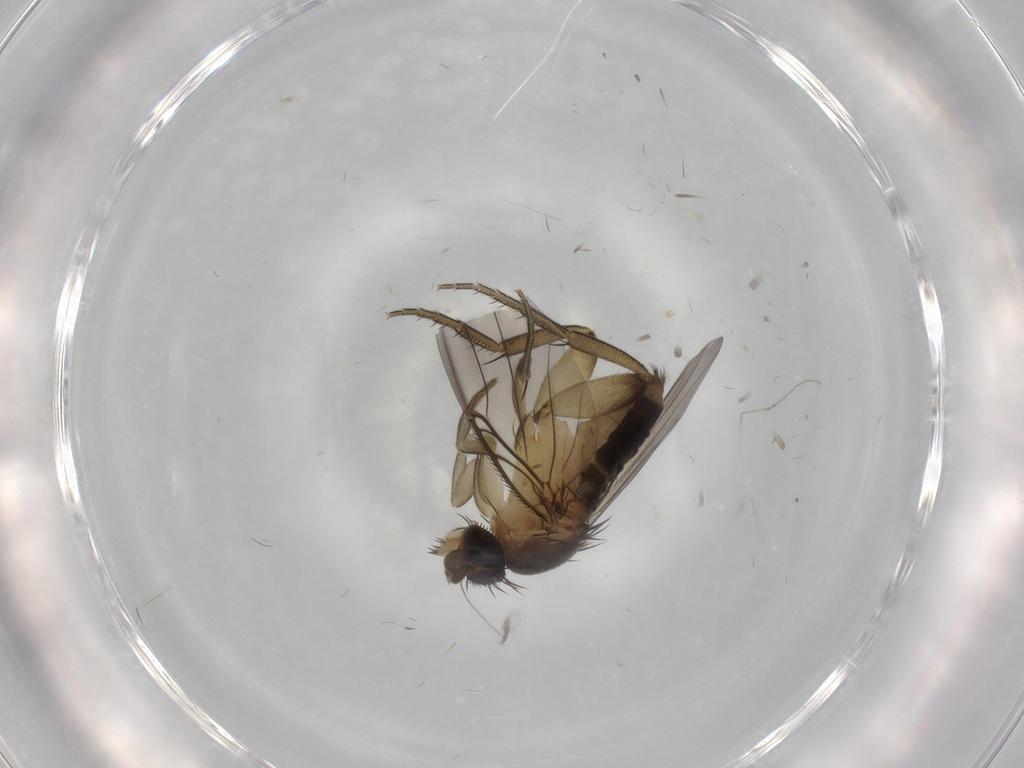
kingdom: Animalia
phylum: Arthropoda
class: Insecta
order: Diptera
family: Phoridae
